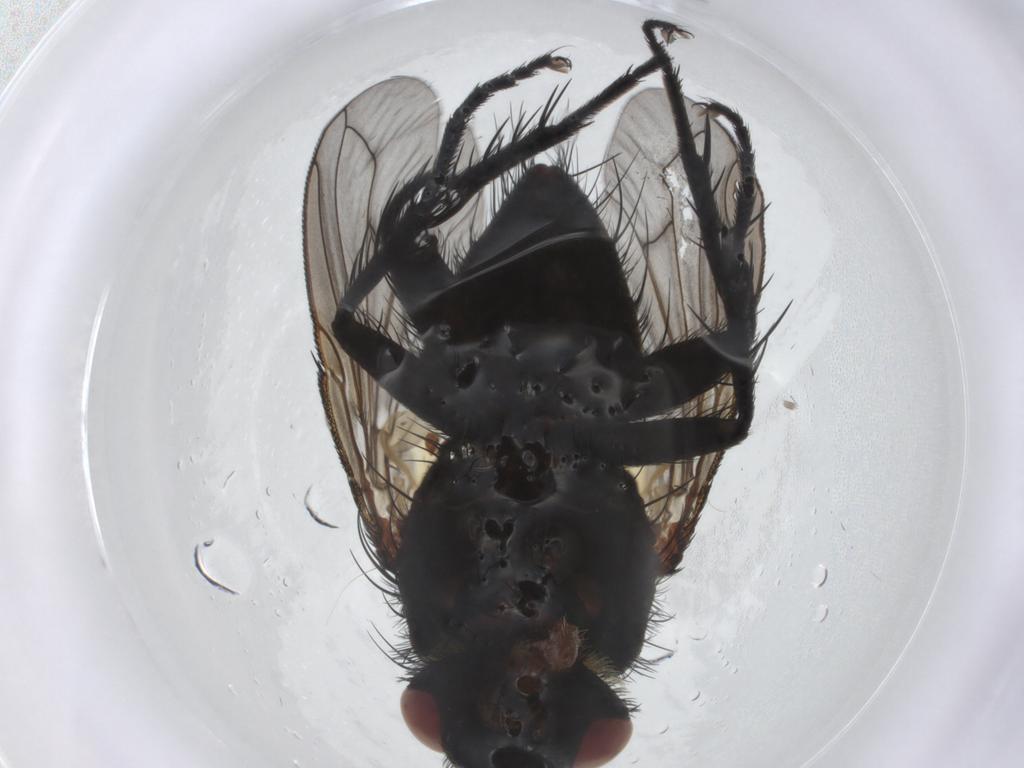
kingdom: Animalia
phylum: Arthropoda
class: Insecta
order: Diptera
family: Tachinidae
